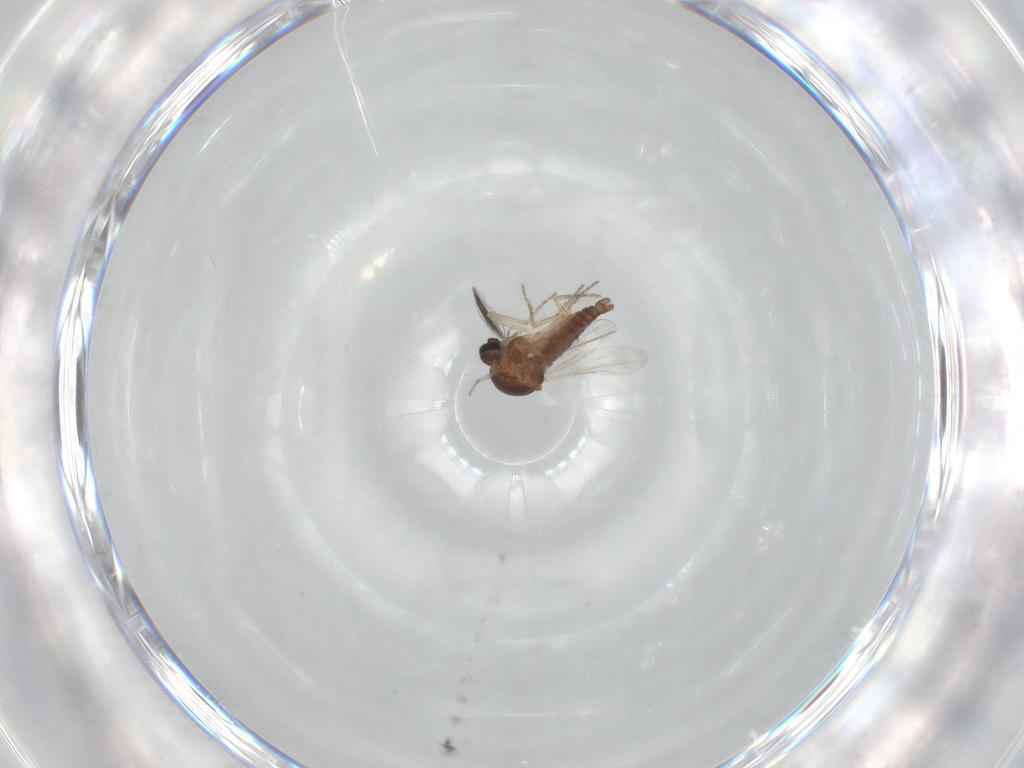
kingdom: Animalia
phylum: Arthropoda
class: Insecta
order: Diptera
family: Ceratopogonidae
